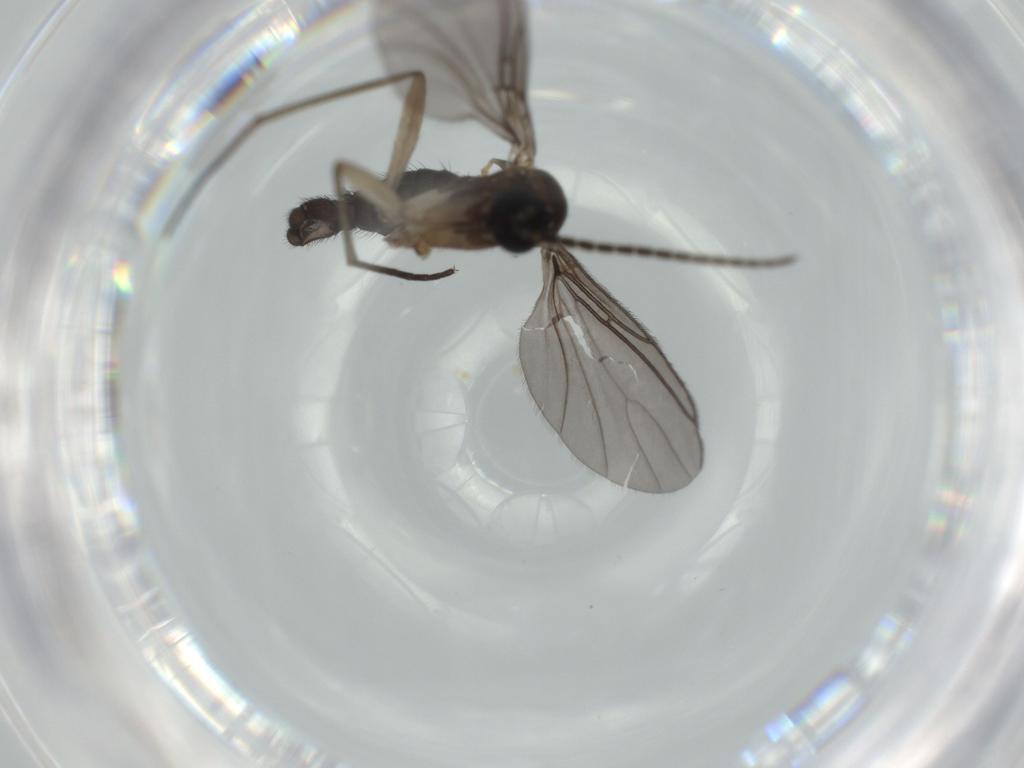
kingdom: Animalia
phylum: Arthropoda
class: Insecta
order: Diptera
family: Sciaridae
